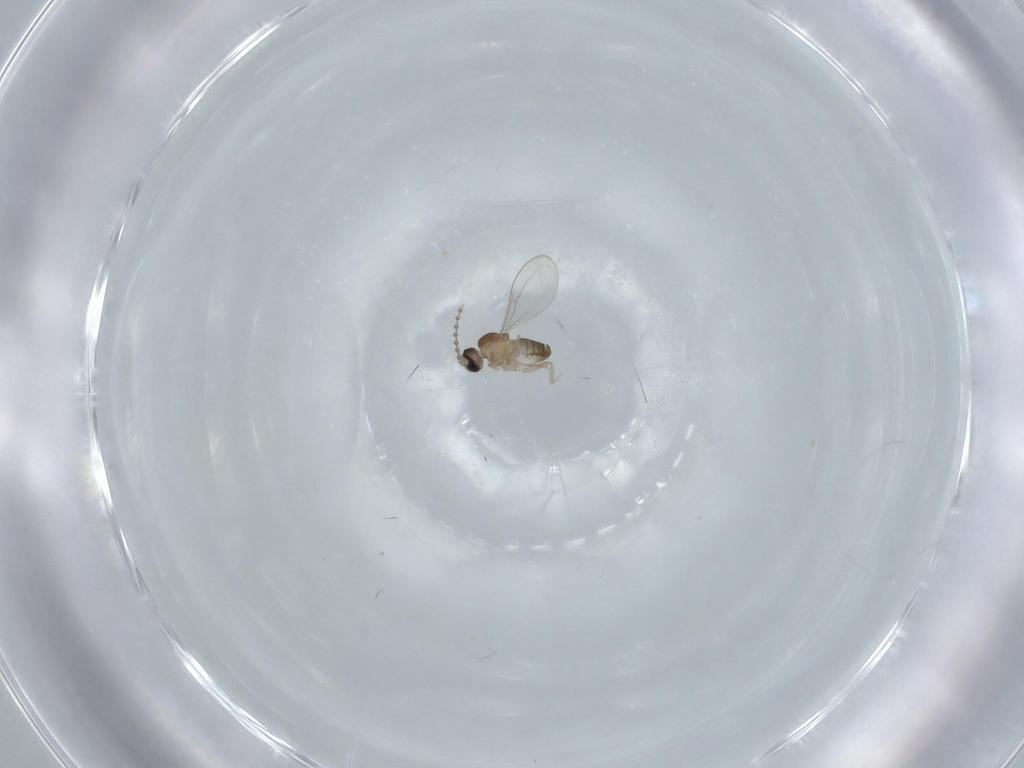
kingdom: Animalia
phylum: Arthropoda
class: Insecta
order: Diptera
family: Cecidomyiidae
